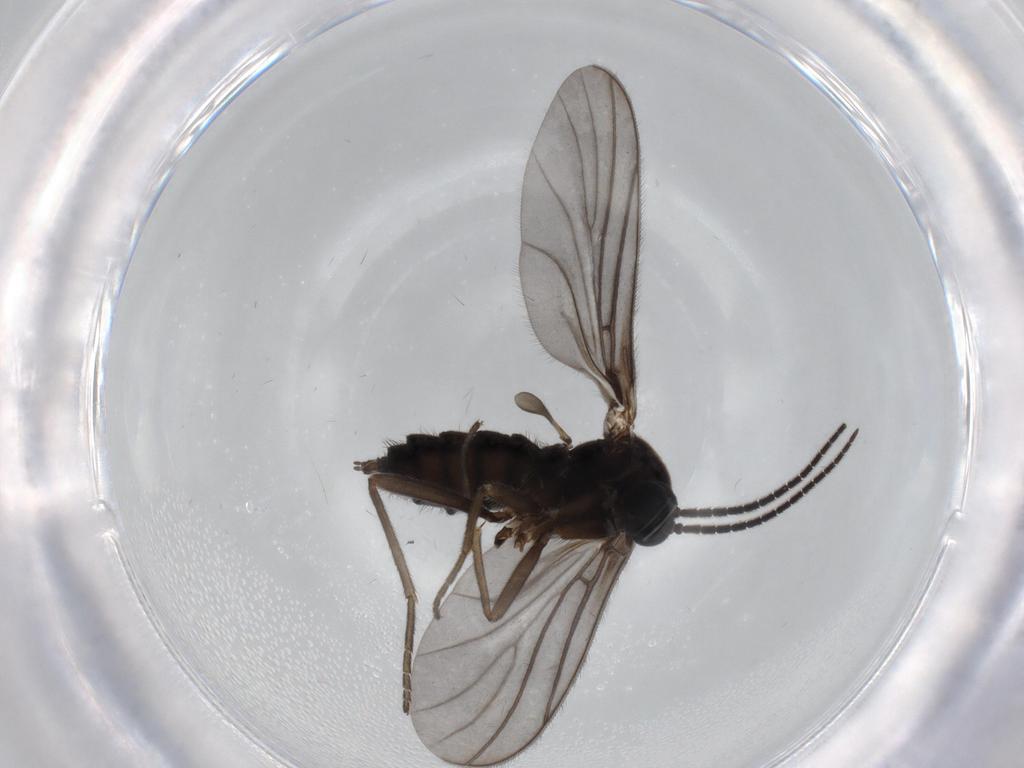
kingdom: Animalia
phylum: Arthropoda
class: Insecta
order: Diptera
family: Sciaridae
